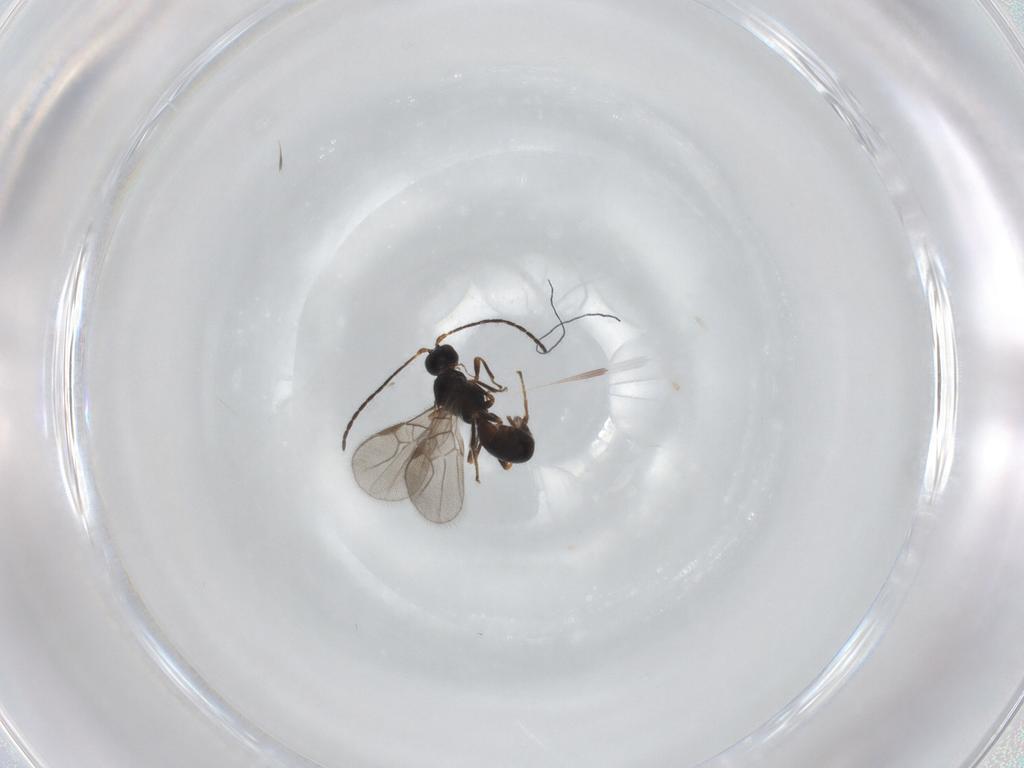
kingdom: Animalia
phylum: Arthropoda
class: Insecta
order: Hymenoptera
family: Braconidae
